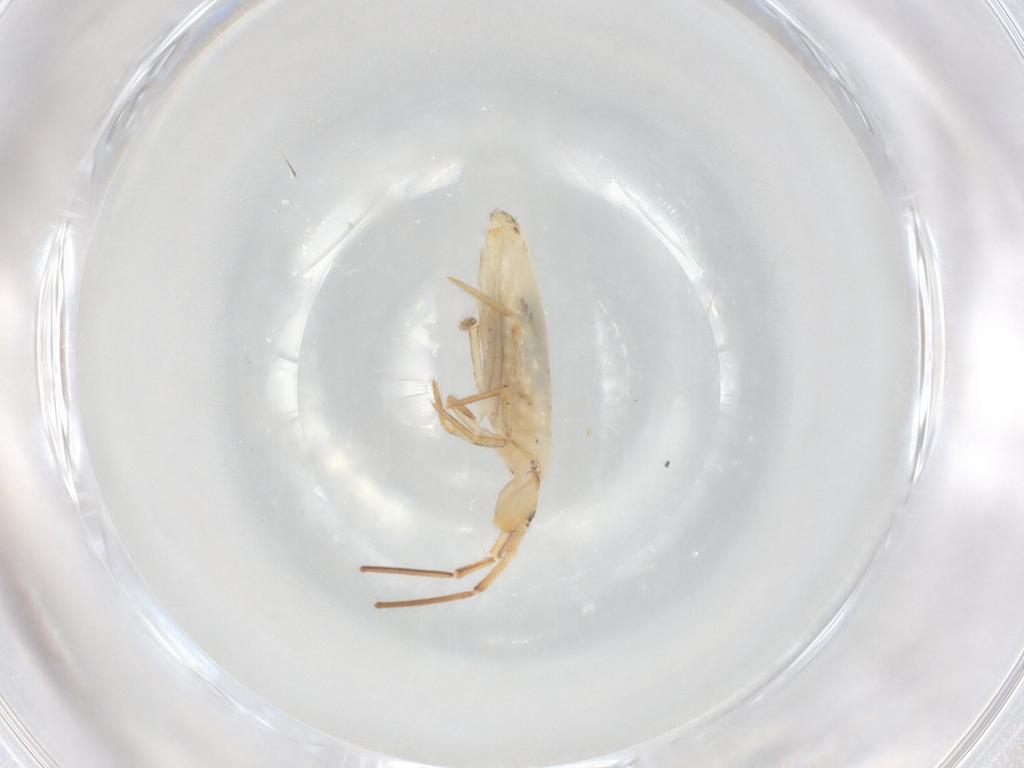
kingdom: Animalia
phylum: Arthropoda
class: Collembola
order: Entomobryomorpha
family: Entomobryidae
